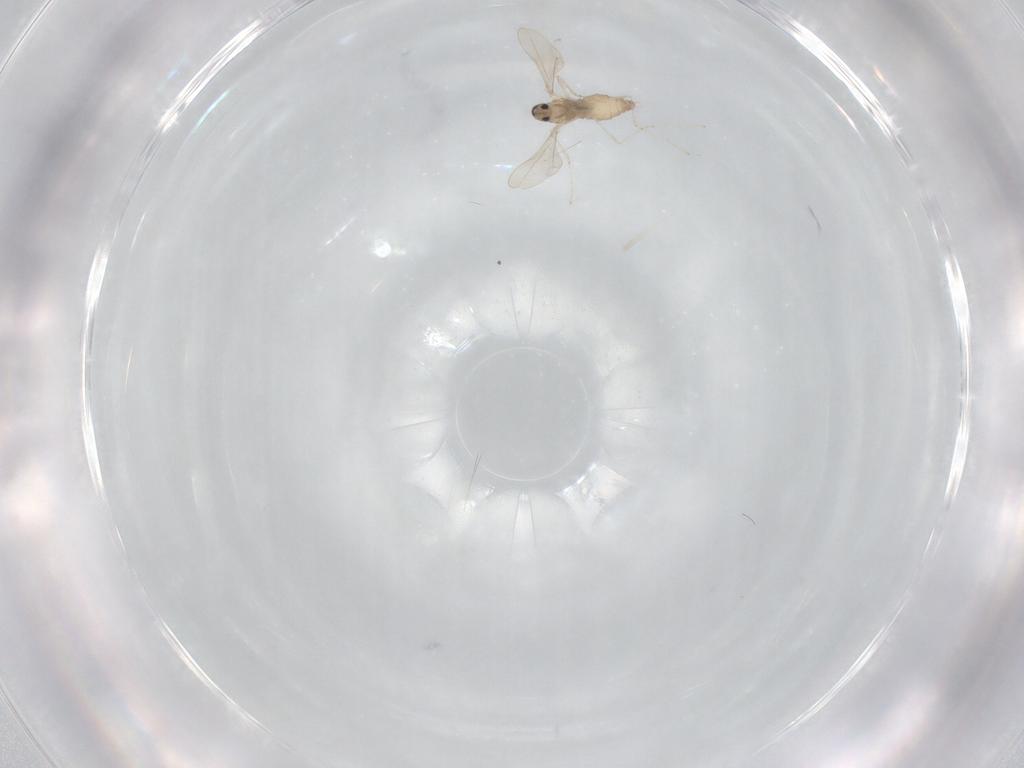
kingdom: Animalia
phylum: Arthropoda
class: Insecta
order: Diptera
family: Cecidomyiidae
